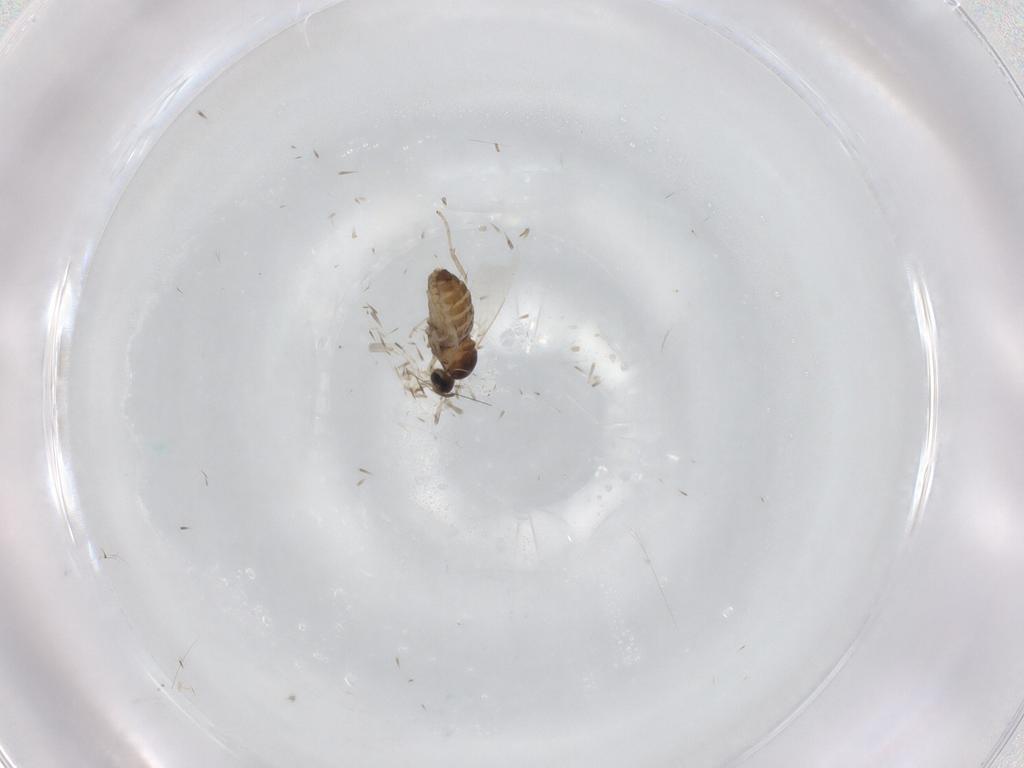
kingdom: Animalia
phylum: Arthropoda
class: Insecta
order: Diptera
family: Cecidomyiidae
